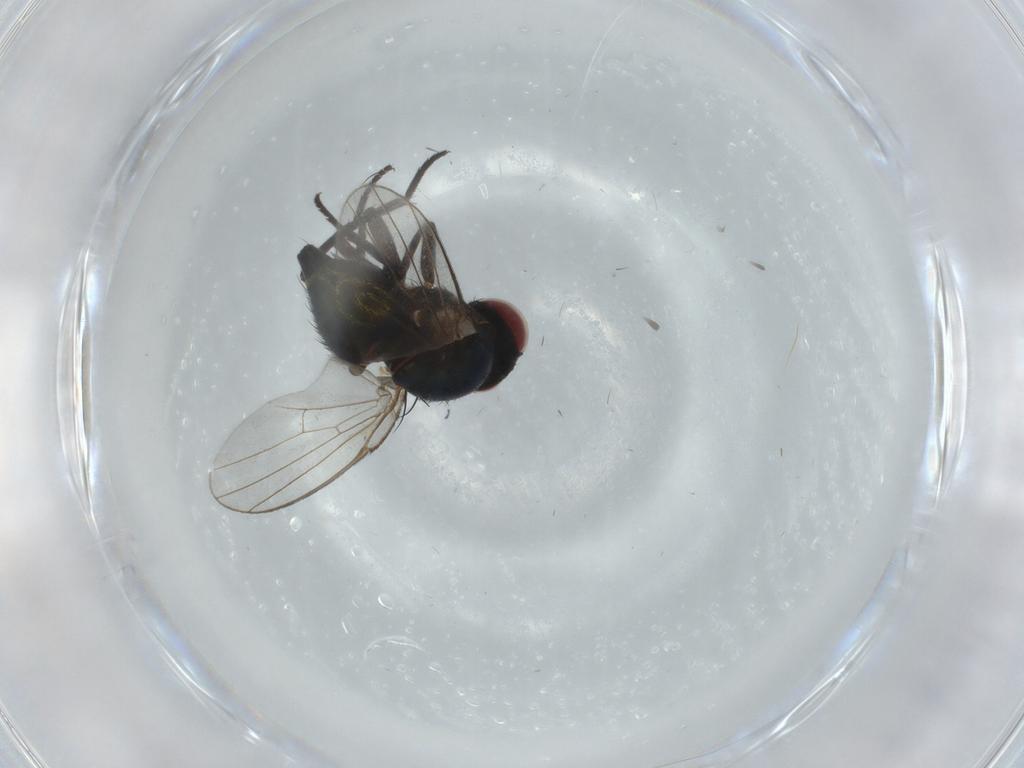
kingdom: Animalia
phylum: Arthropoda
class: Insecta
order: Diptera
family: Agromyzidae
